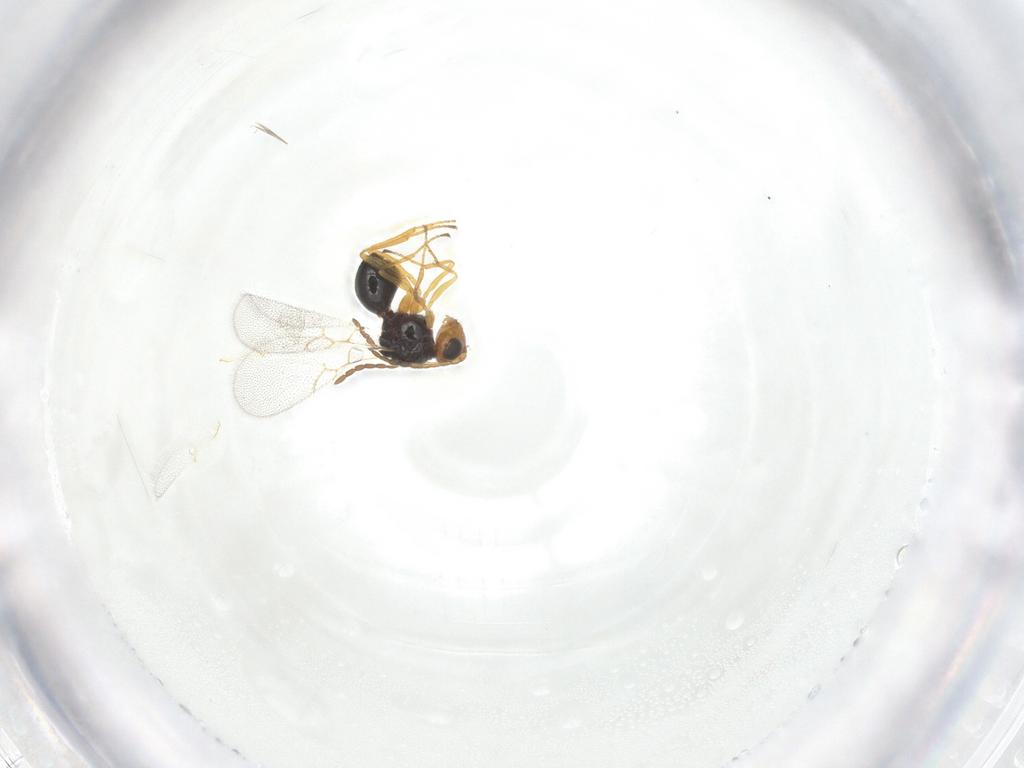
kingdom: Animalia
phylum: Arthropoda
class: Insecta
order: Hymenoptera
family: Figitidae
